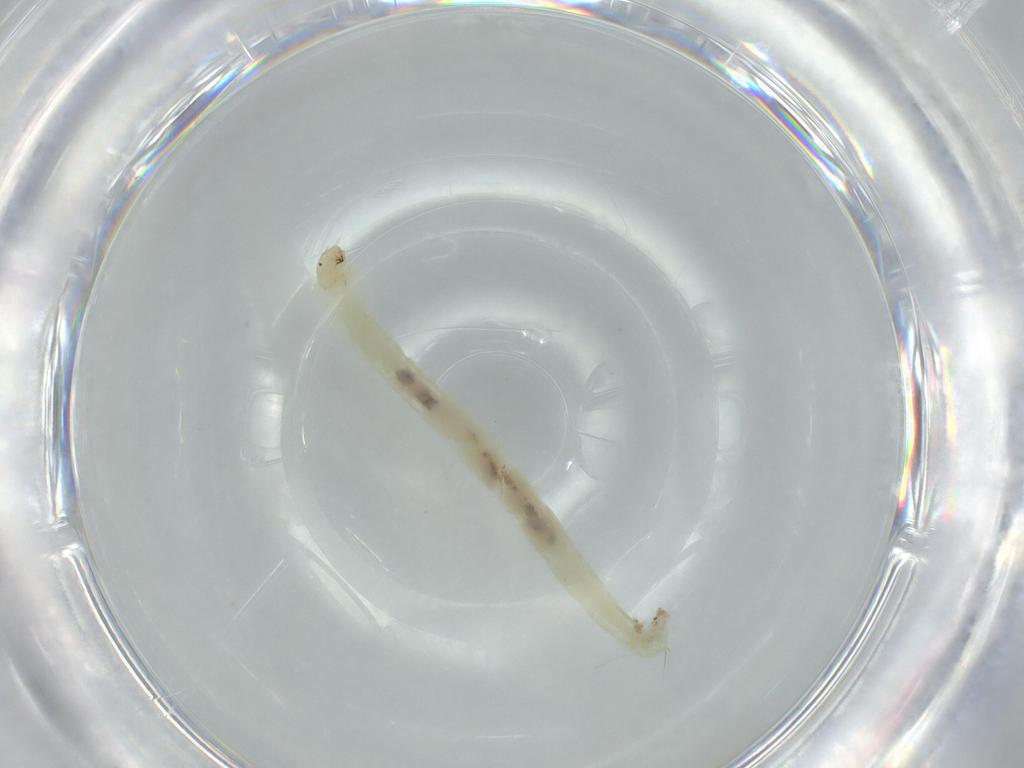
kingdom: Animalia
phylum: Arthropoda
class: Insecta
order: Diptera
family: Chironomidae
